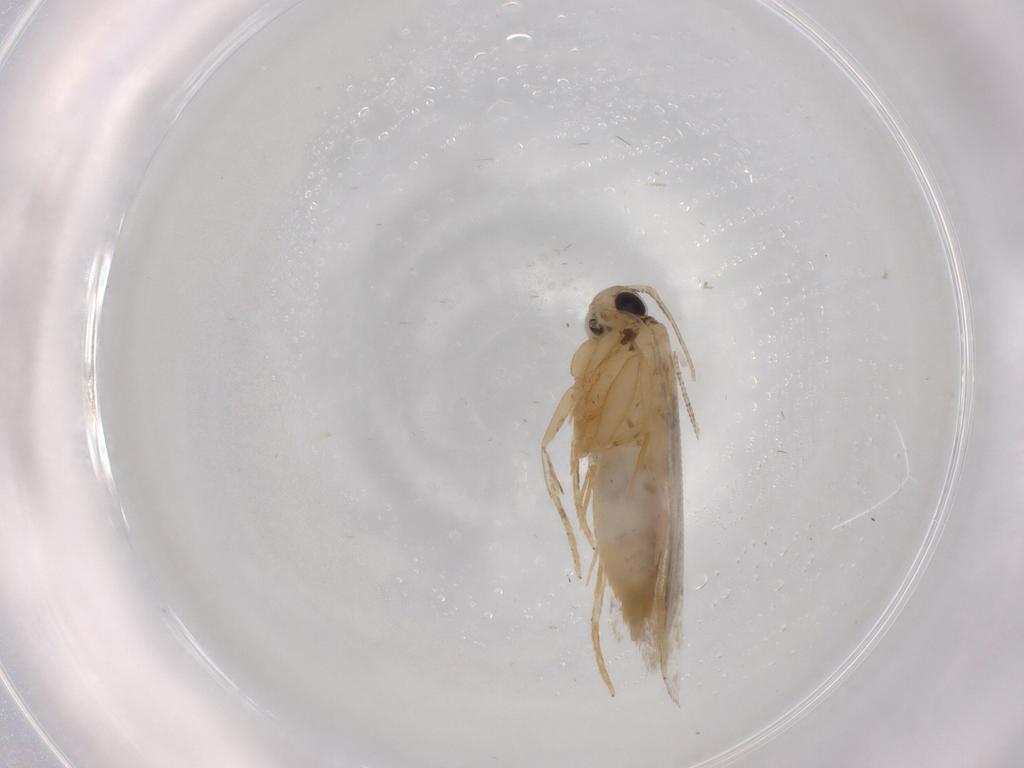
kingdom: Animalia
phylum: Arthropoda
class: Insecta
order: Lepidoptera
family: Autostichidae
